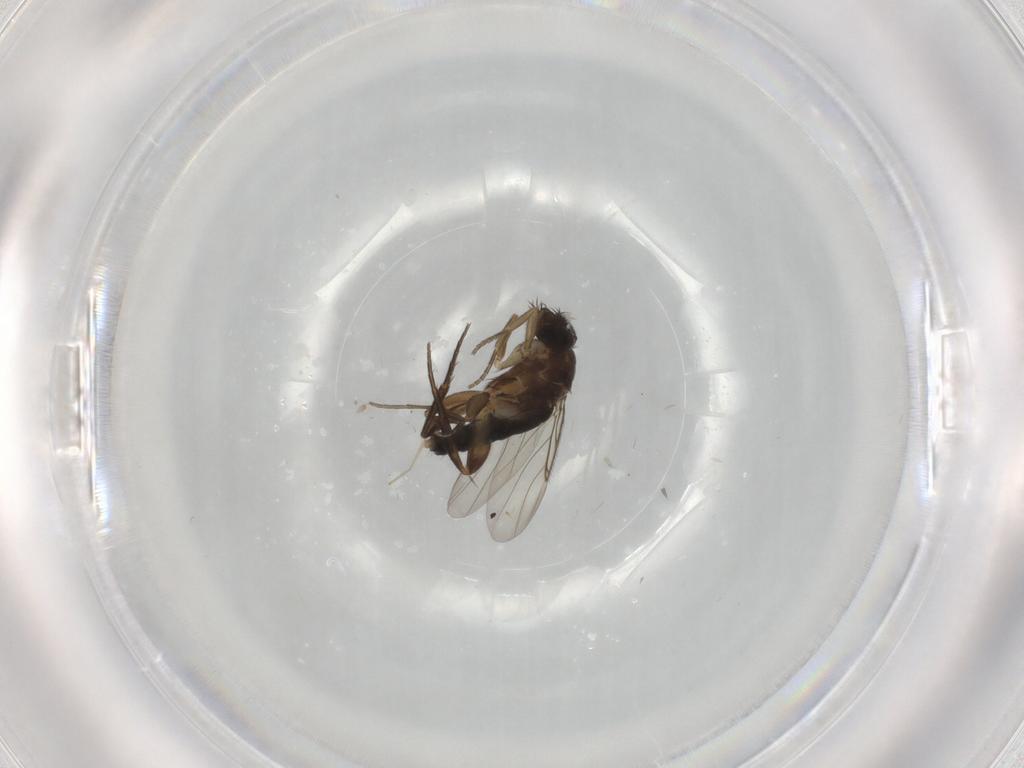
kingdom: Animalia
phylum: Arthropoda
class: Insecta
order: Diptera
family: Phoridae
